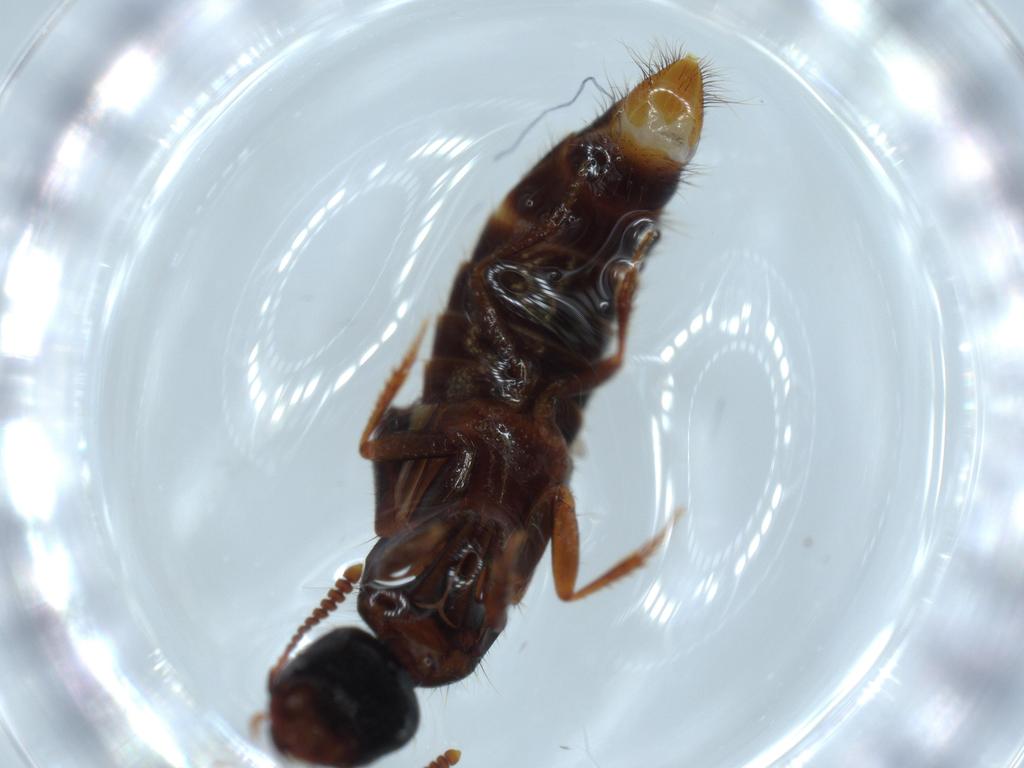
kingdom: Animalia
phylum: Arthropoda
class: Insecta
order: Coleoptera
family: Staphylinidae
